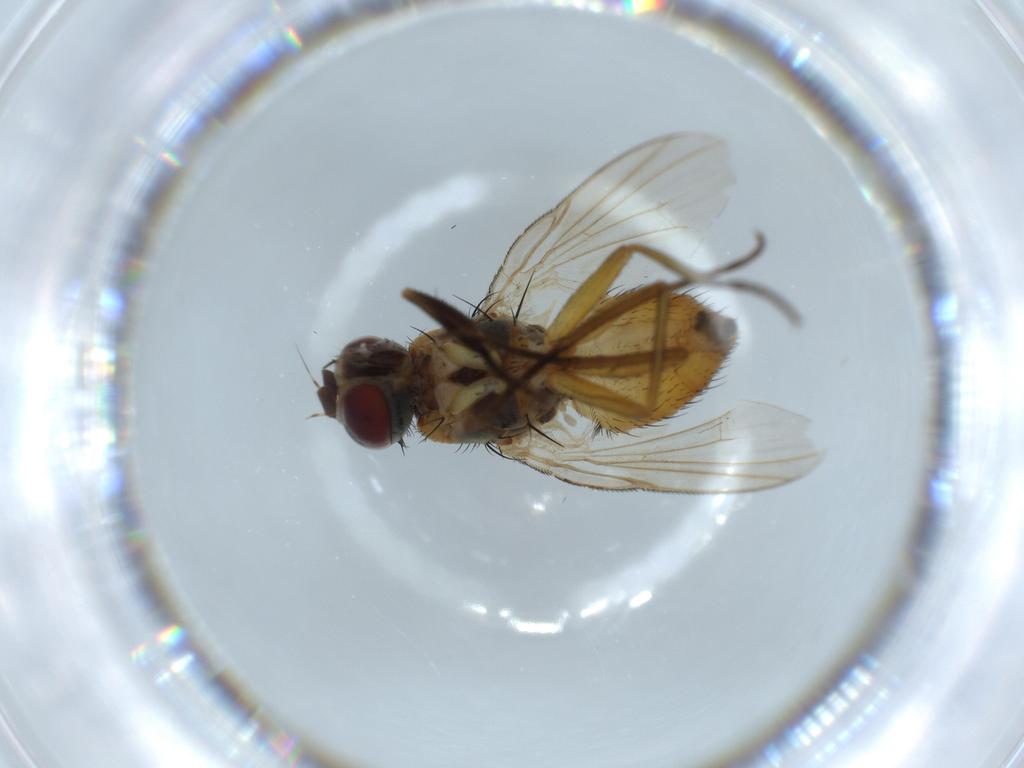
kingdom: Animalia
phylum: Arthropoda
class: Insecta
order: Diptera
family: Muscidae
